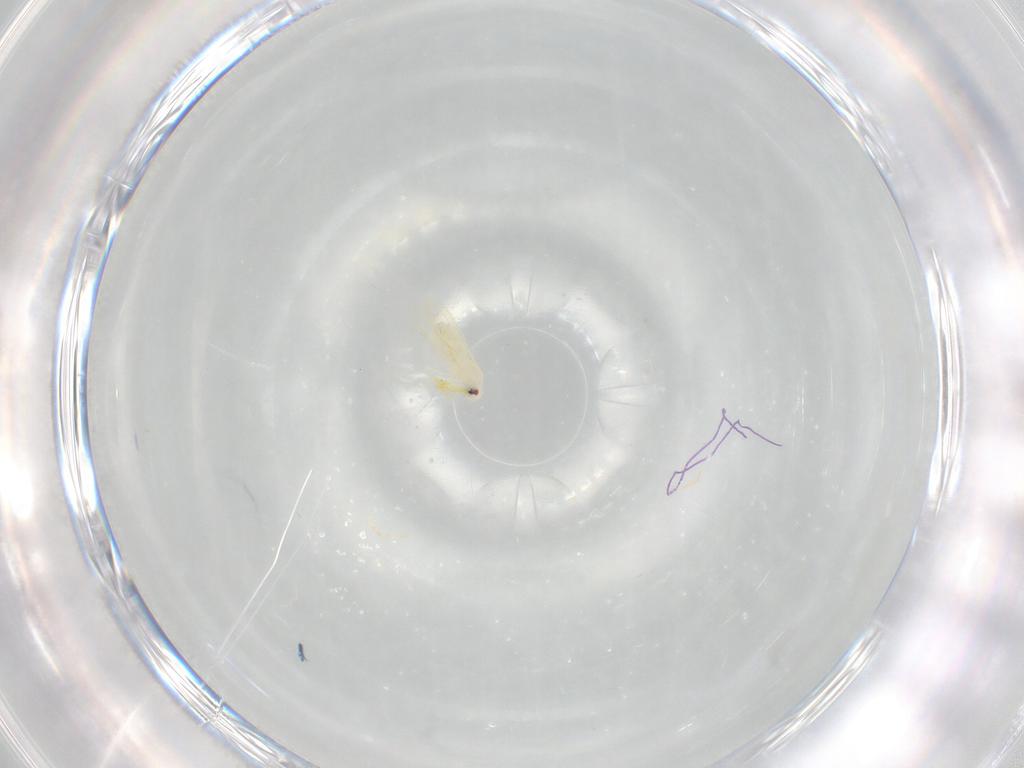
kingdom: Animalia
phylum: Arthropoda
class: Insecta
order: Hemiptera
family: Aleyrodidae
